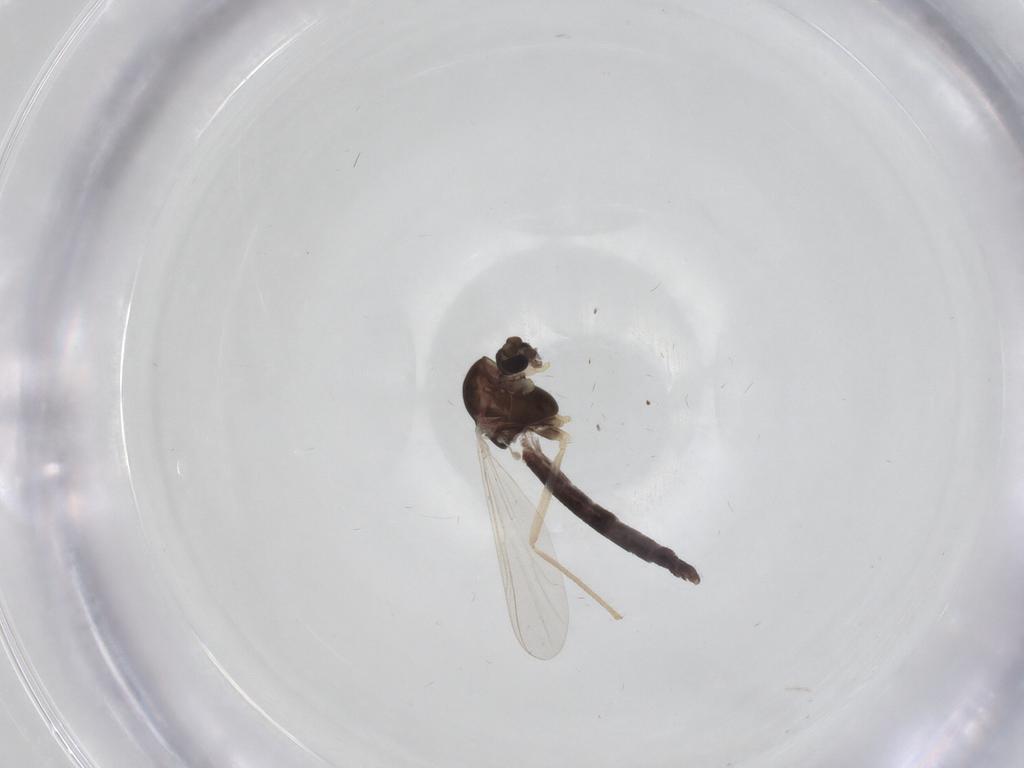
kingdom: Animalia
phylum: Arthropoda
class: Insecta
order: Diptera
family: Chironomidae
